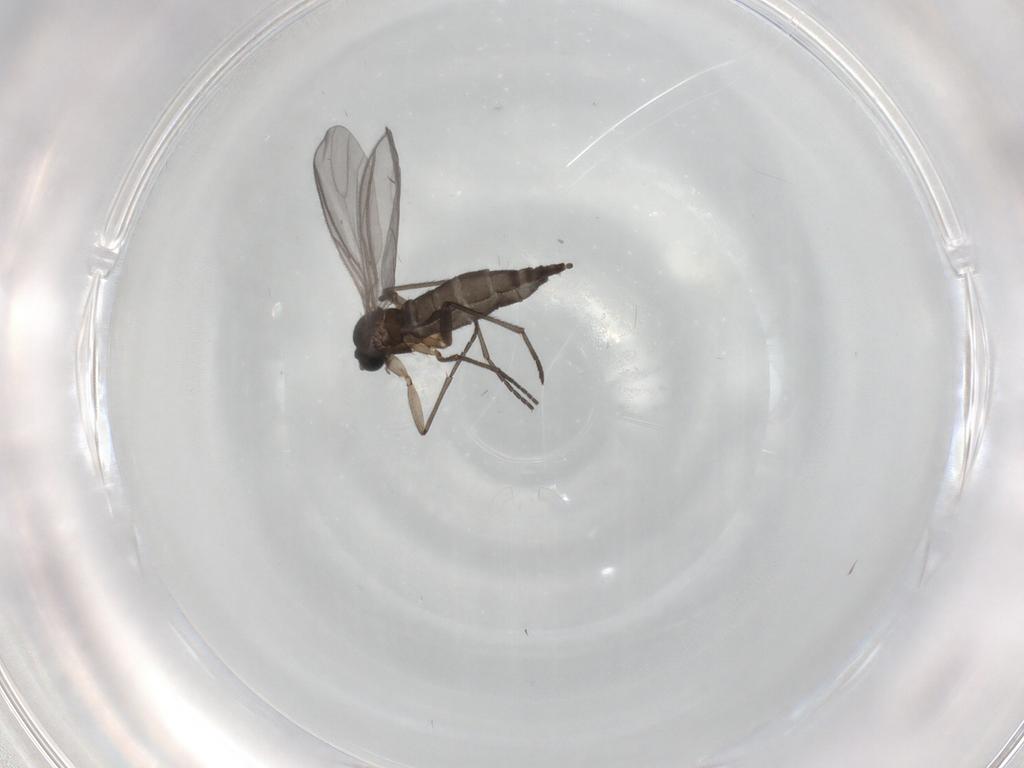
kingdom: Animalia
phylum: Arthropoda
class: Insecta
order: Diptera
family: Sciaridae
